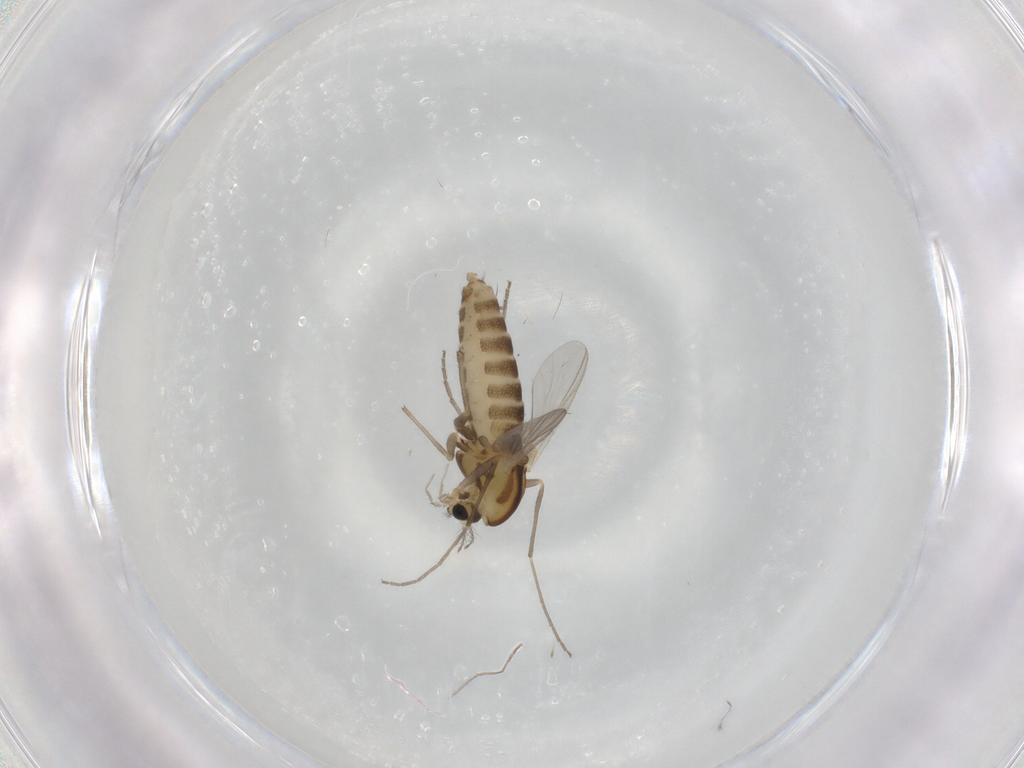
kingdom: Animalia
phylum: Arthropoda
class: Insecta
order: Diptera
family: Chironomidae
